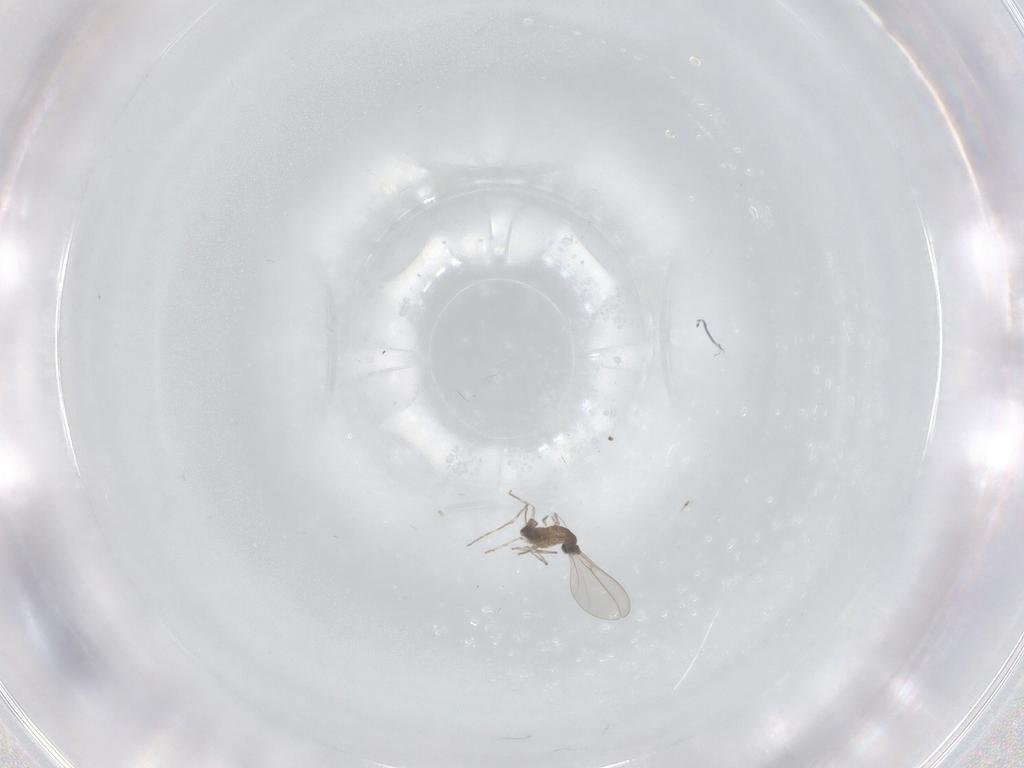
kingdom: Animalia
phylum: Arthropoda
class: Insecta
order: Diptera
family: Cecidomyiidae
